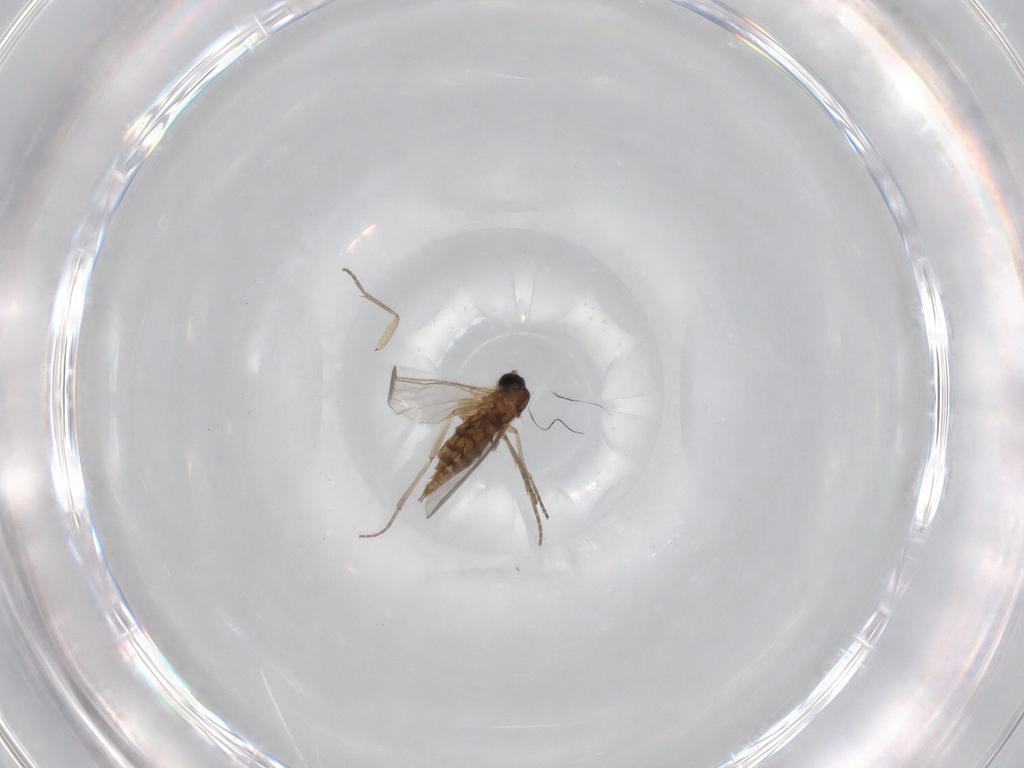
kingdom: Animalia
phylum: Arthropoda
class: Insecta
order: Diptera
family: Sciaridae
